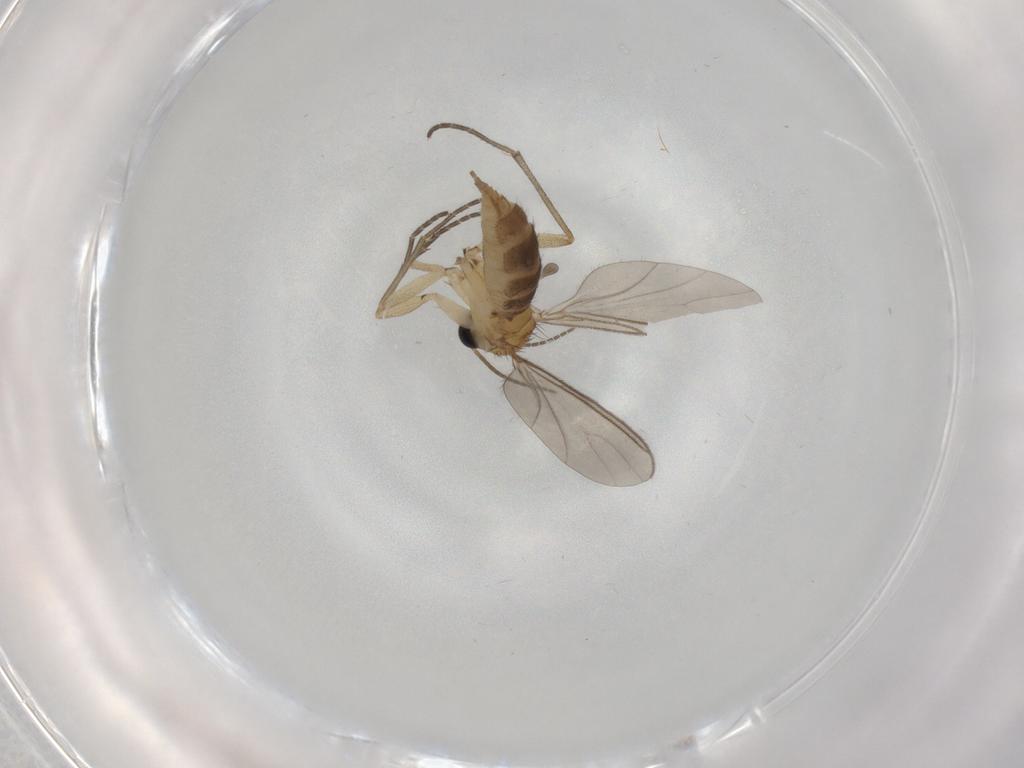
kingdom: Animalia
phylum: Arthropoda
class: Insecta
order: Diptera
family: Sciaridae
